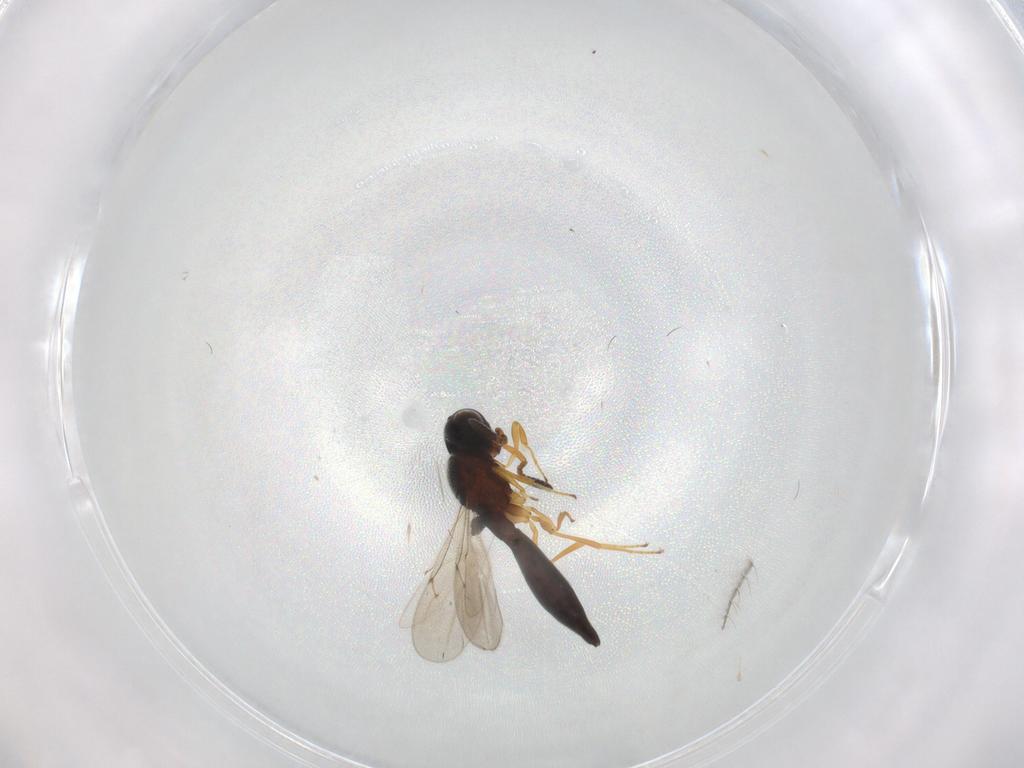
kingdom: Animalia
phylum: Arthropoda
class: Insecta
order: Hymenoptera
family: Scelionidae
